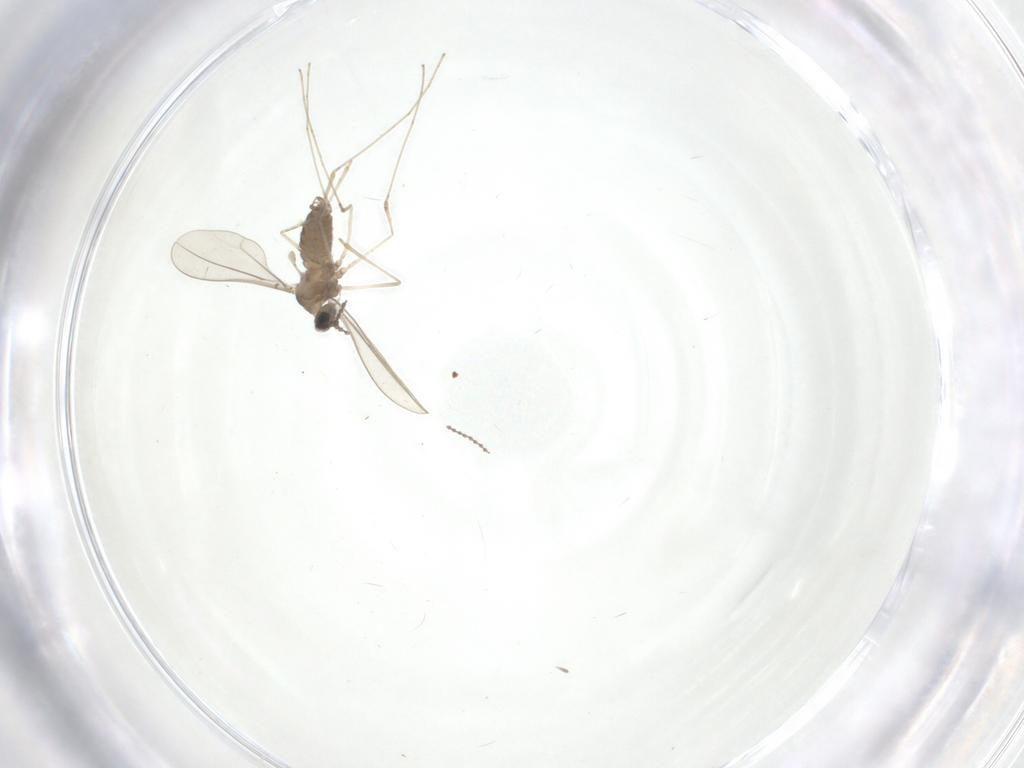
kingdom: Animalia
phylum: Arthropoda
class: Insecta
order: Diptera
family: Cecidomyiidae
